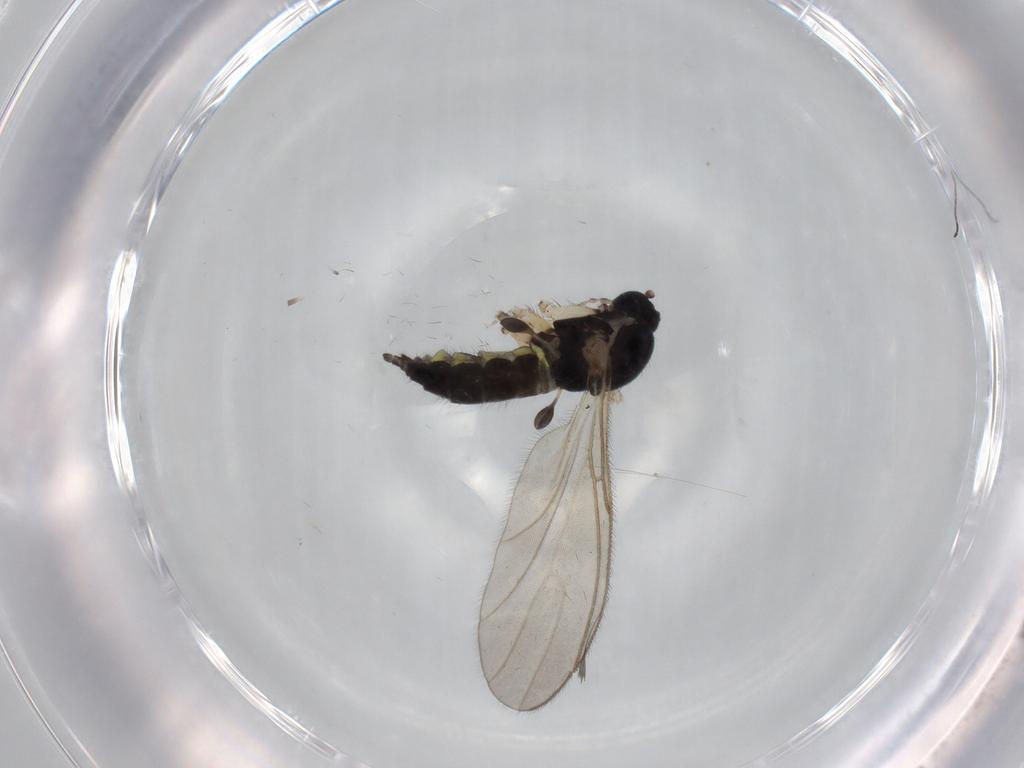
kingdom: Animalia
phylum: Arthropoda
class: Insecta
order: Diptera
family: Sciaridae
